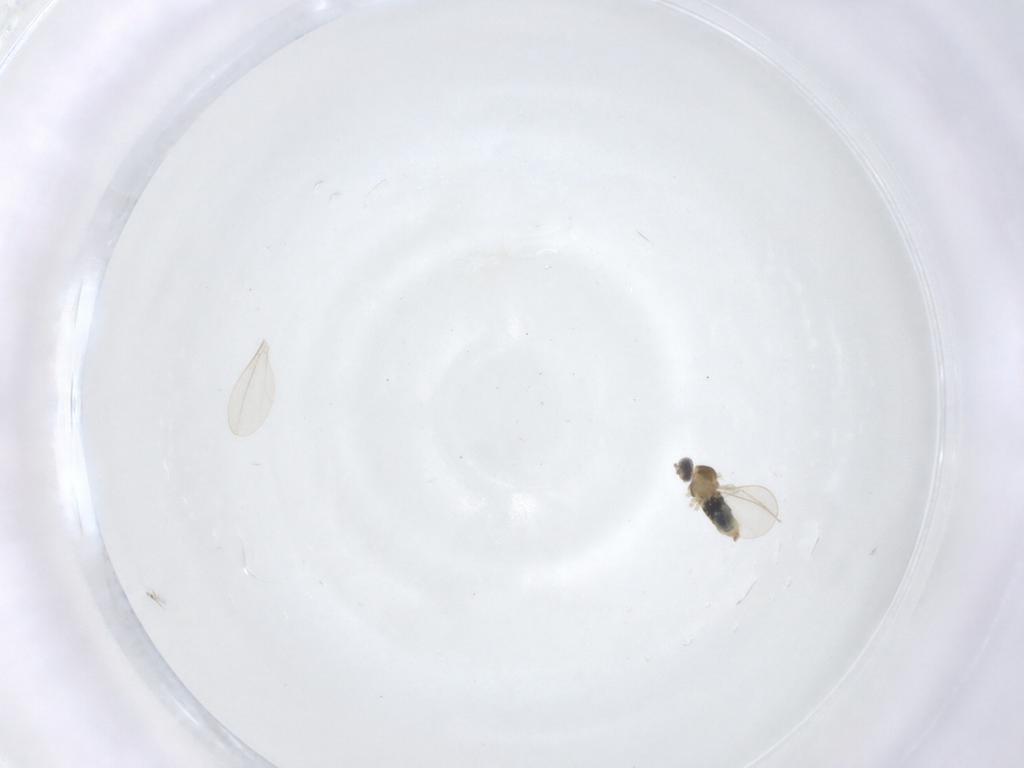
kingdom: Animalia
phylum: Arthropoda
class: Insecta
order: Diptera
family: Cecidomyiidae
